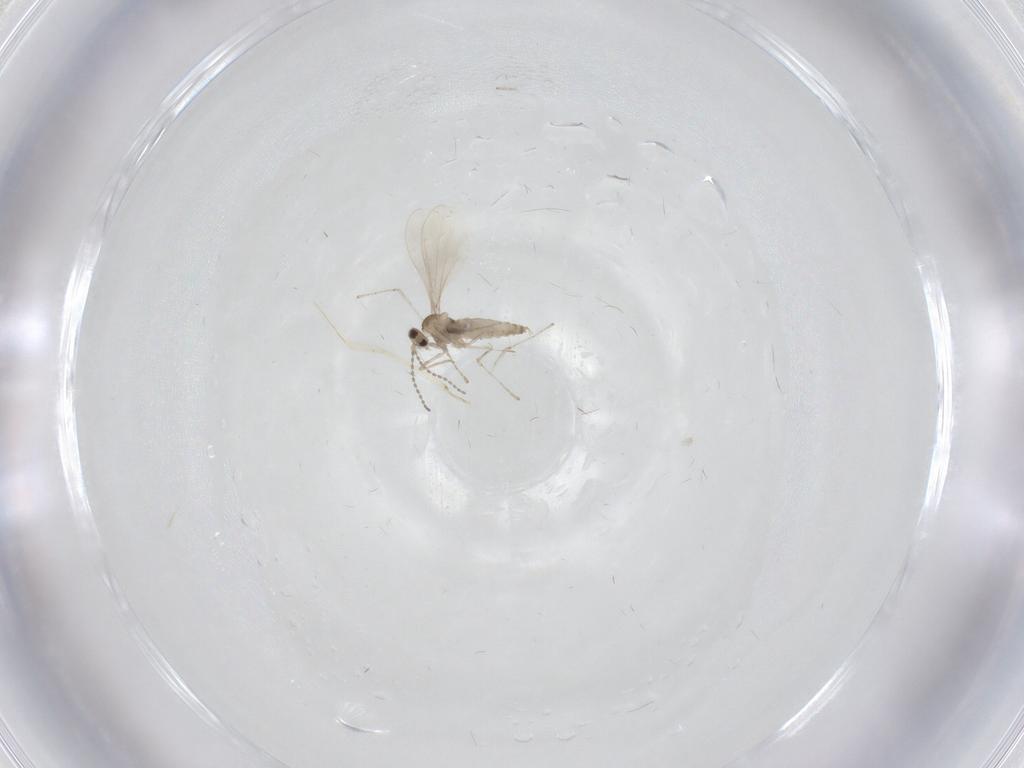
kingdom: Animalia
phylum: Arthropoda
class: Insecta
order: Diptera
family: Cecidomyiidae
